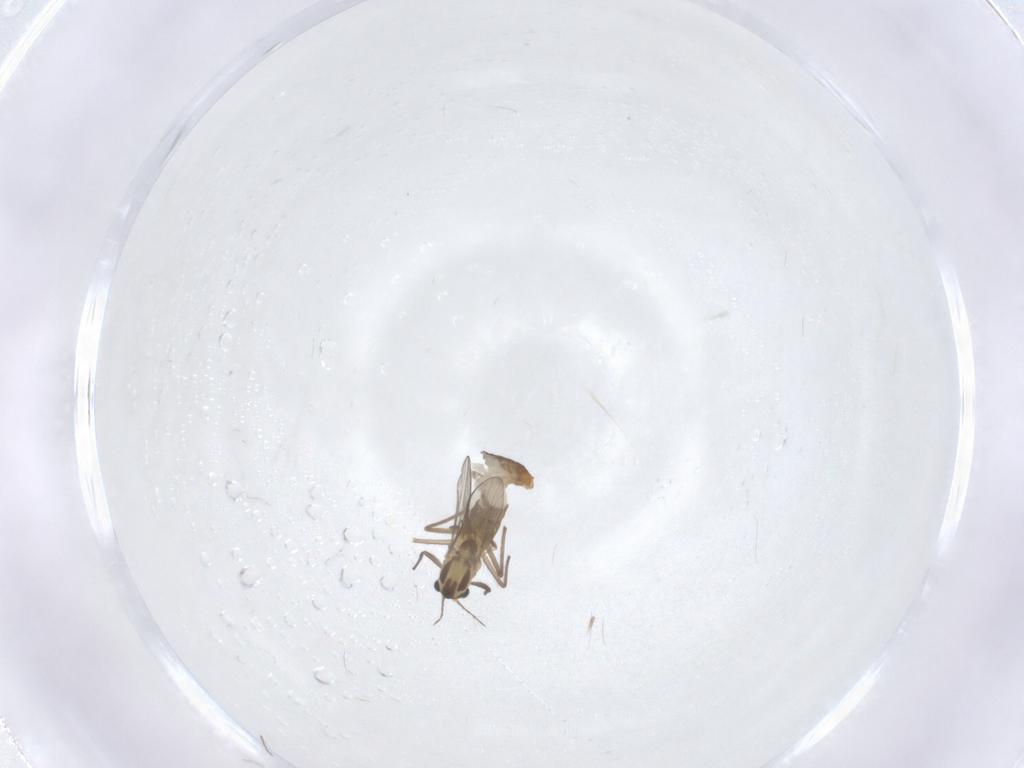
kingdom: Animalia
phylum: Arthropoda
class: Insecta
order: Diptera
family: Chironomidae
